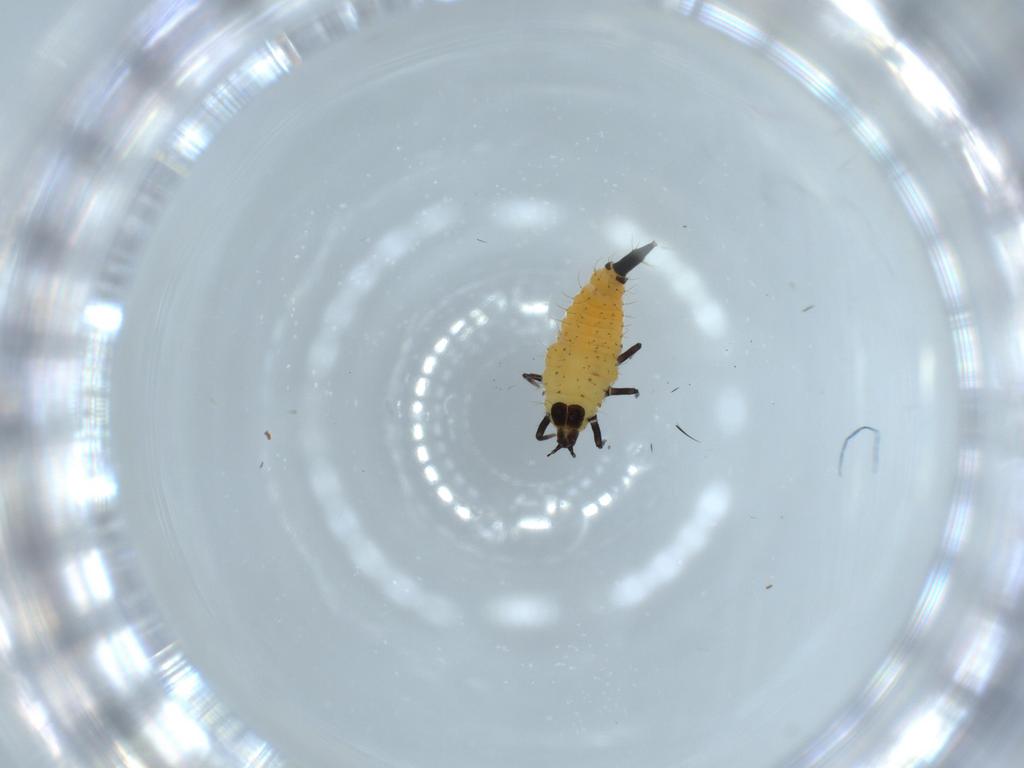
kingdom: Animalia
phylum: Arthropoda
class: Insecta
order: Thysanoptera
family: Phlaeothripidae
